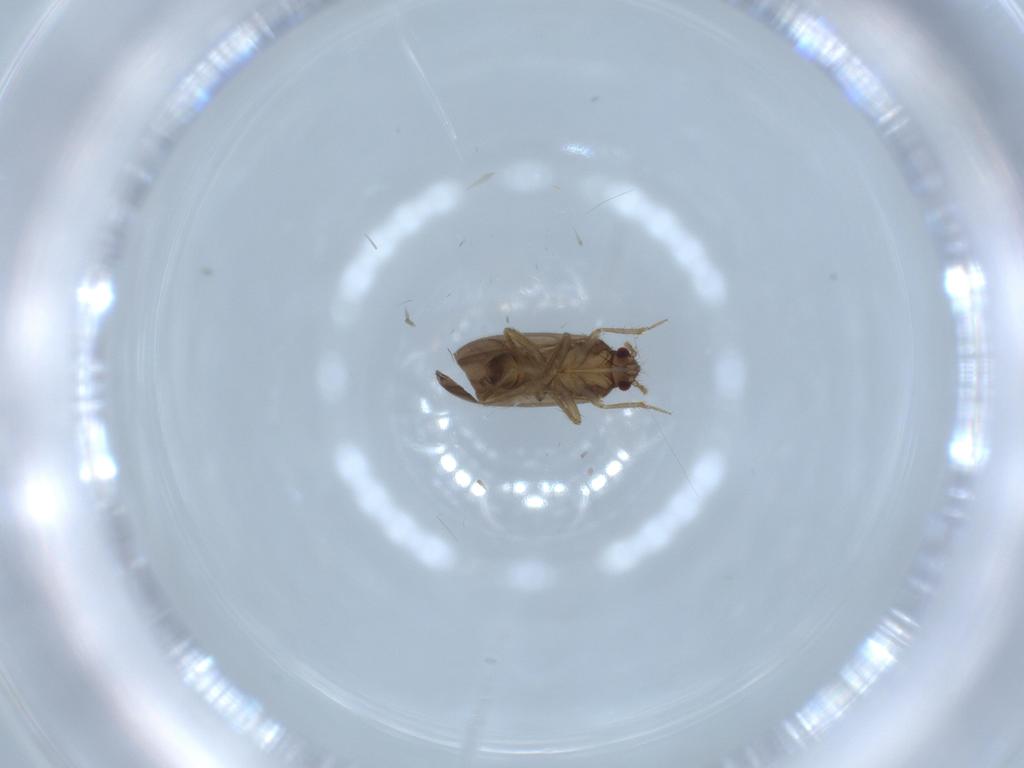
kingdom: Animalia
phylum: Arthropoda
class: Insecta
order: Hemiptera
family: Ceratocombidae
